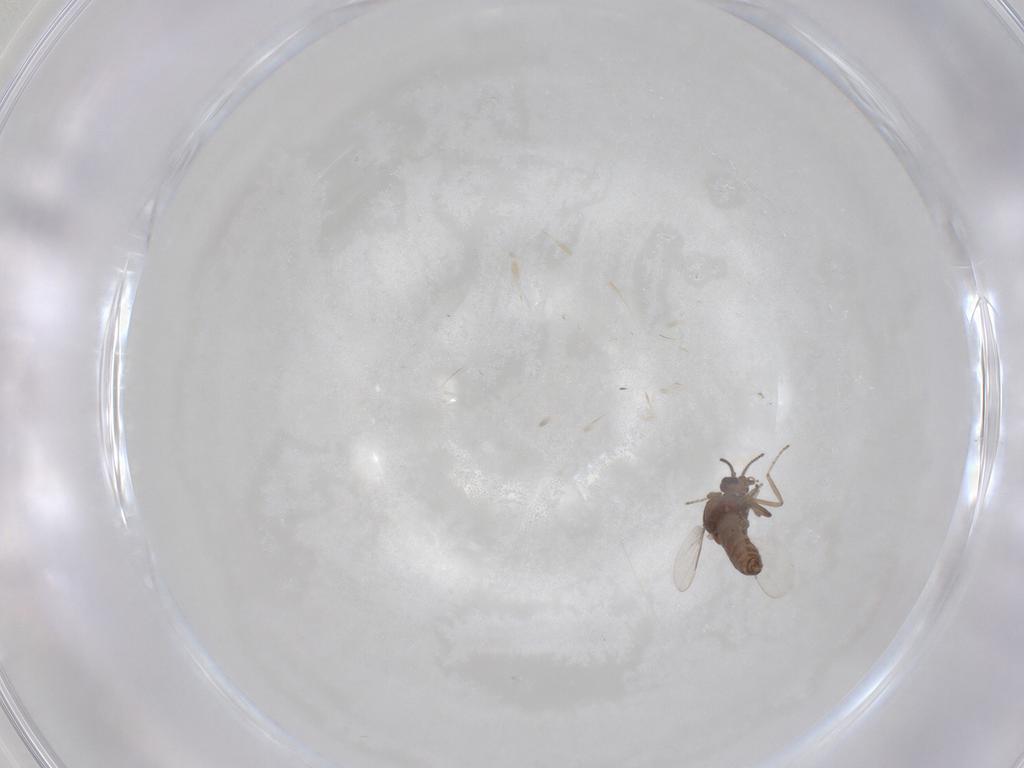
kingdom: Animalia
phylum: Arthropoda
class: Insecta
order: Diptera
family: Ceratopogonidae
